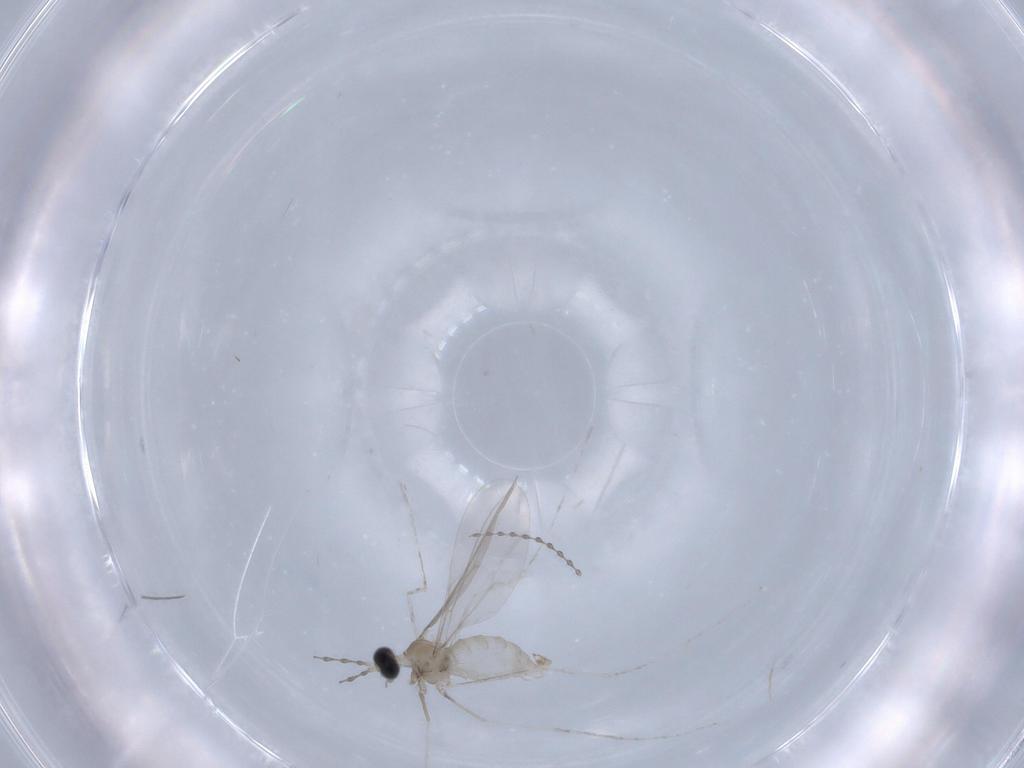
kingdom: Animalia
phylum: Arthropoda
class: Insecta
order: Diptera
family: Cecidomyiidae
